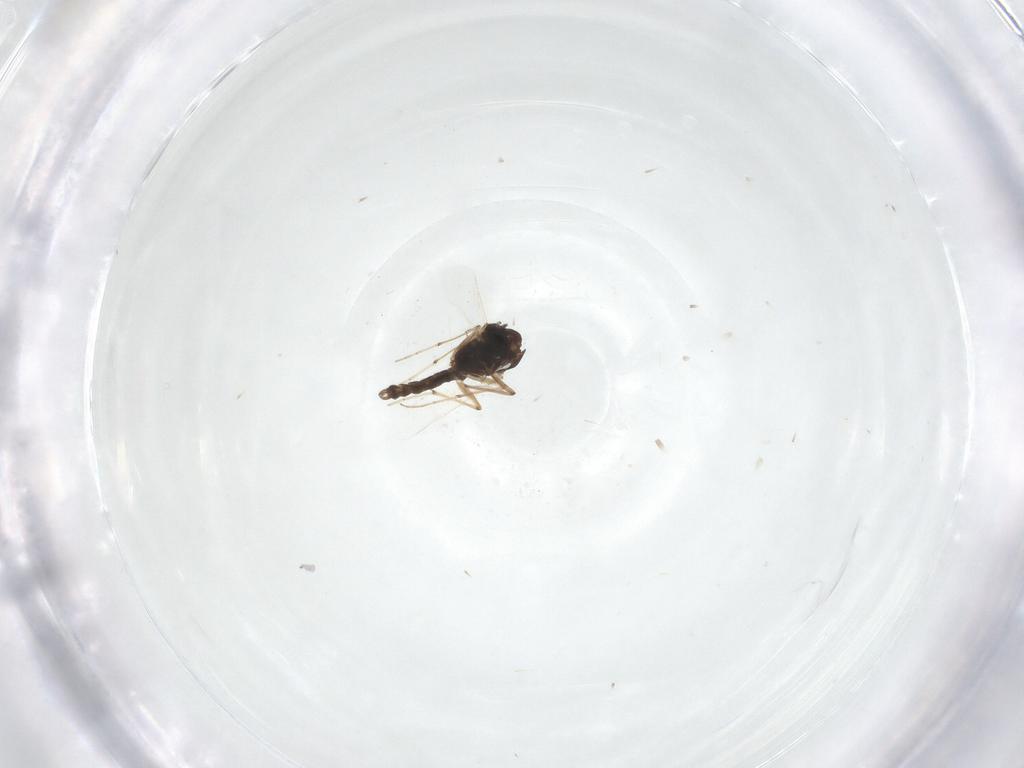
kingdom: Animalia
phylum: Arthropoda
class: Insecta
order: Diptera
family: Chironomidae
